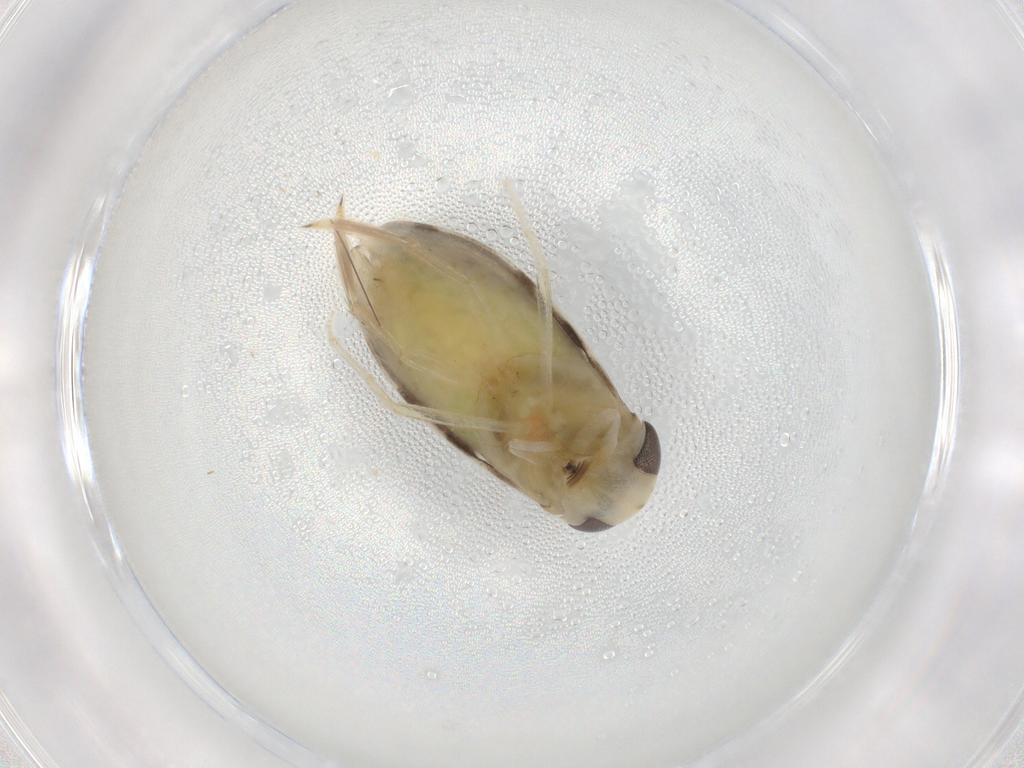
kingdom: Animalia
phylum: Arthropoda
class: Insecta
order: Hemiptera
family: Corixidae
